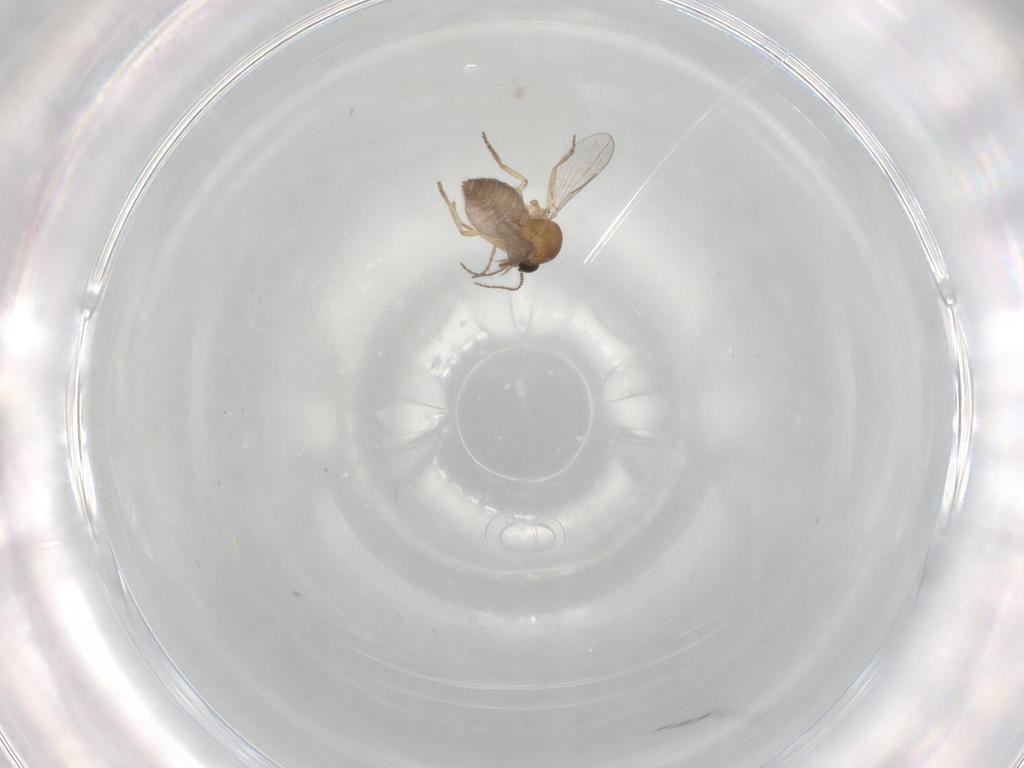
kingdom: Animalia
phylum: Arthropoda
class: Insecta
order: Diptera
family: Ceratopogonidae
